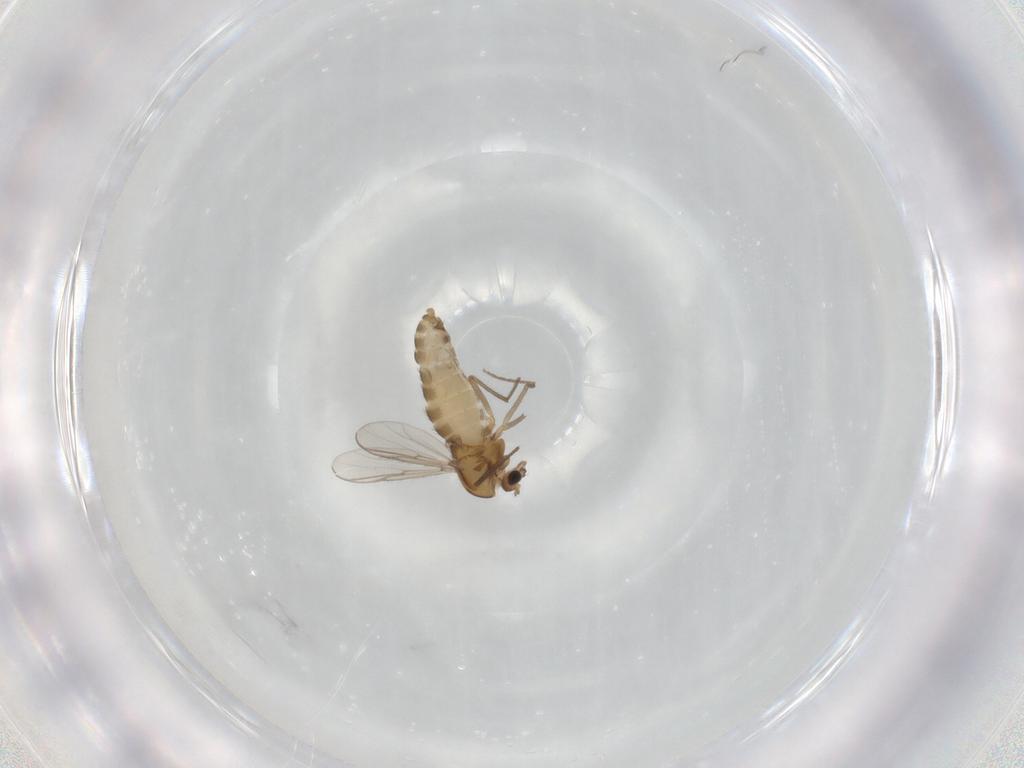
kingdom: Animalia
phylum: Arthropoda
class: Insecta
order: Diptera
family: Chironomidae
